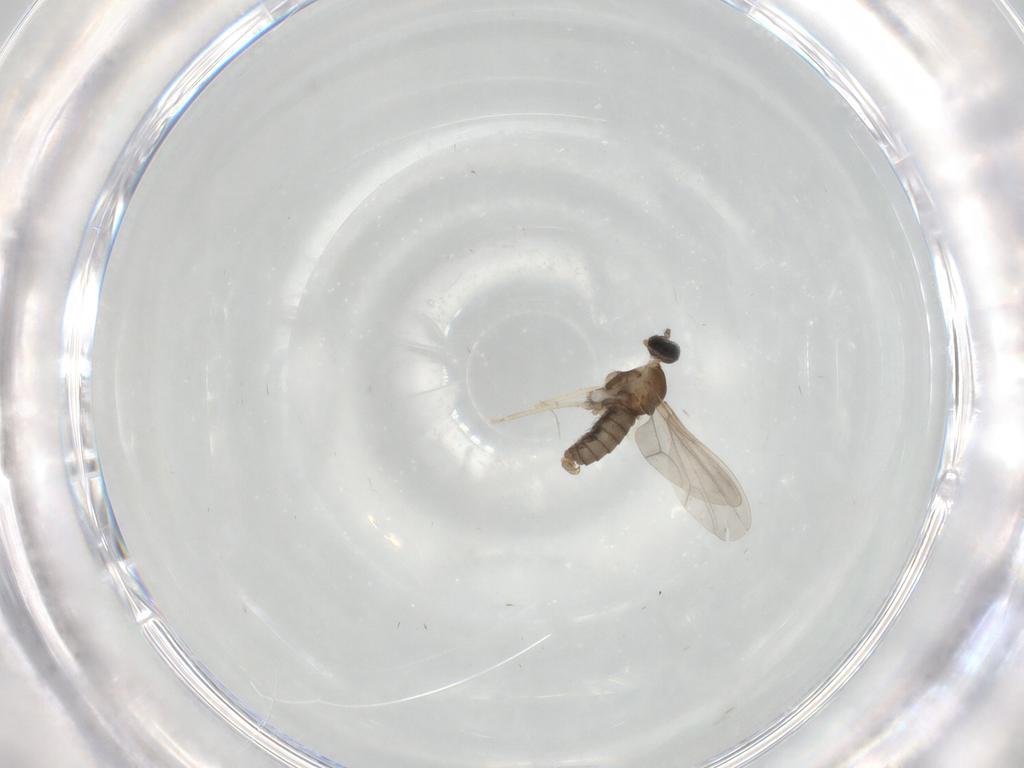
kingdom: Animalia
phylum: Arthropoda
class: Insecta
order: Diptera
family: Cecidomyiidae
